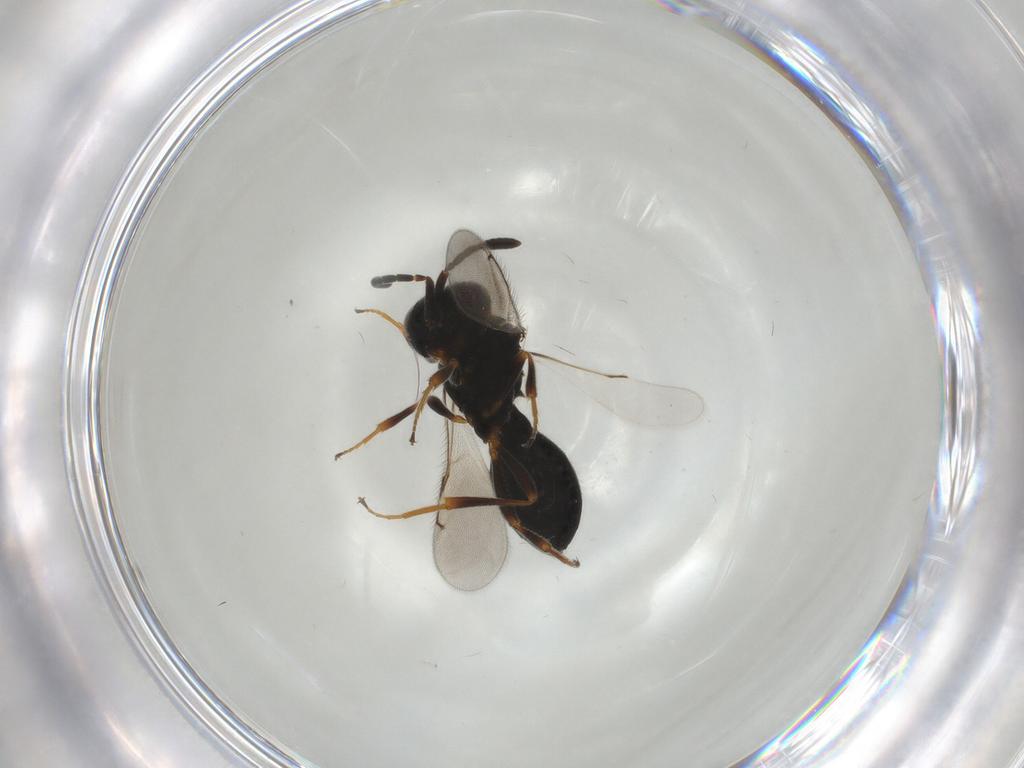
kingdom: Animalia
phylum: Arthropoda
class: Insecta
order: Hymenoptera
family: Scelionidae
